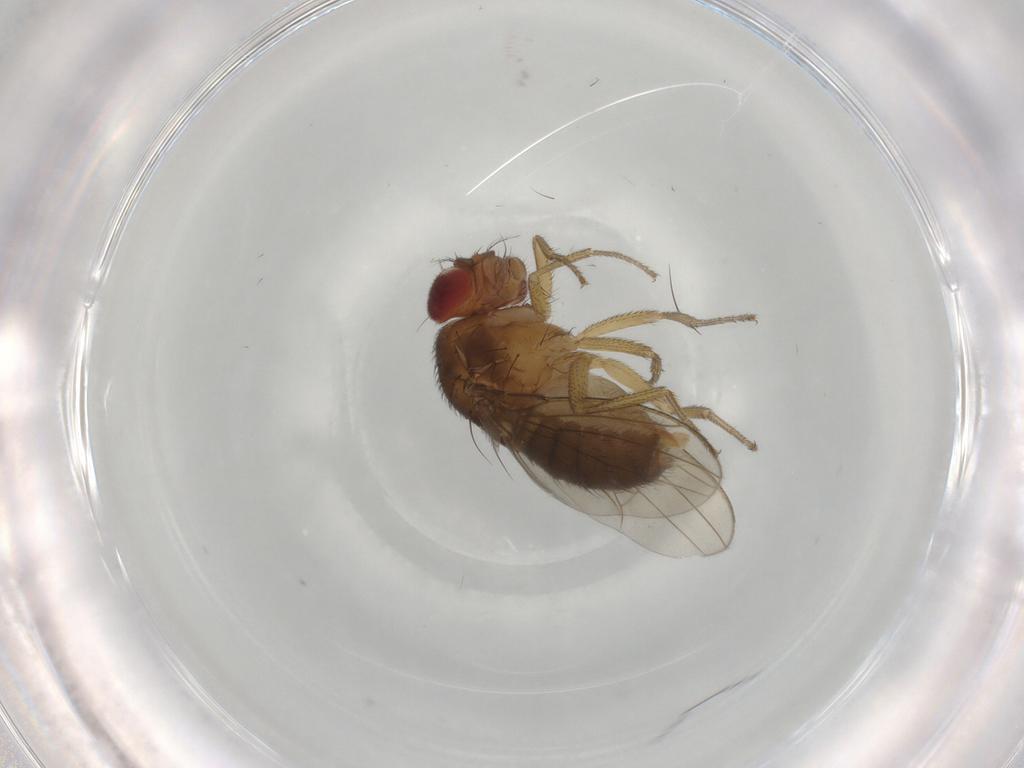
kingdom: Animalia
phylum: Arthropoda
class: Insecta
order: Diptera
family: Drosophilidae
